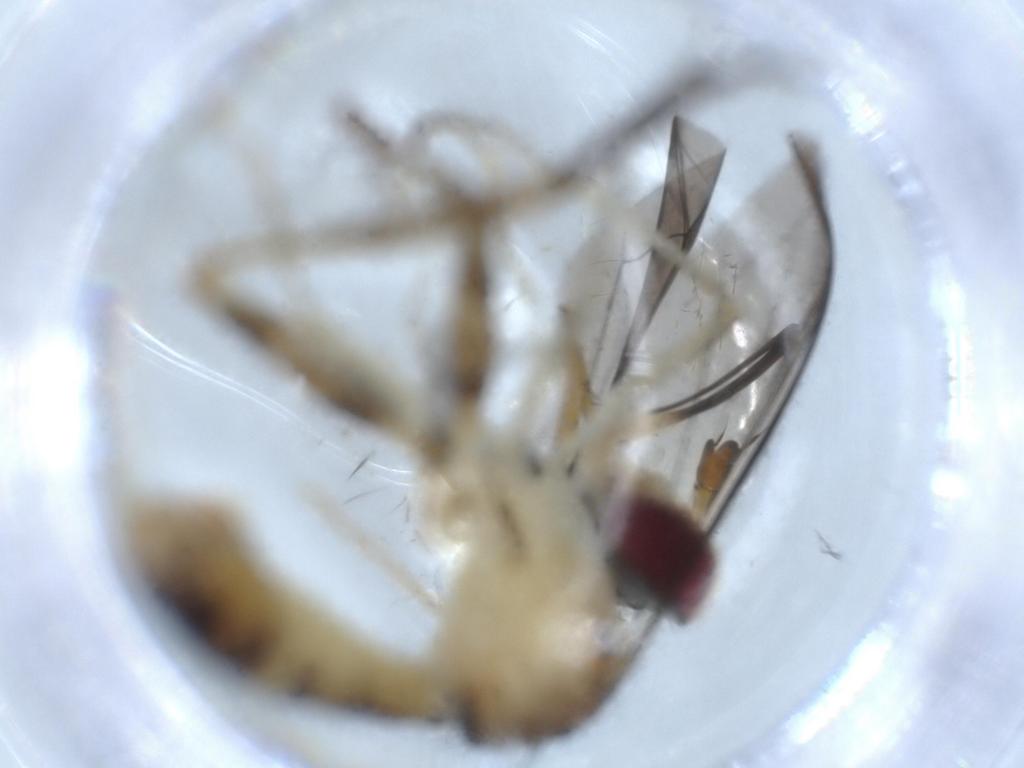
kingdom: Animalia
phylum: Arthropoda
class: Insecta
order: Diptera
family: Conopidae
